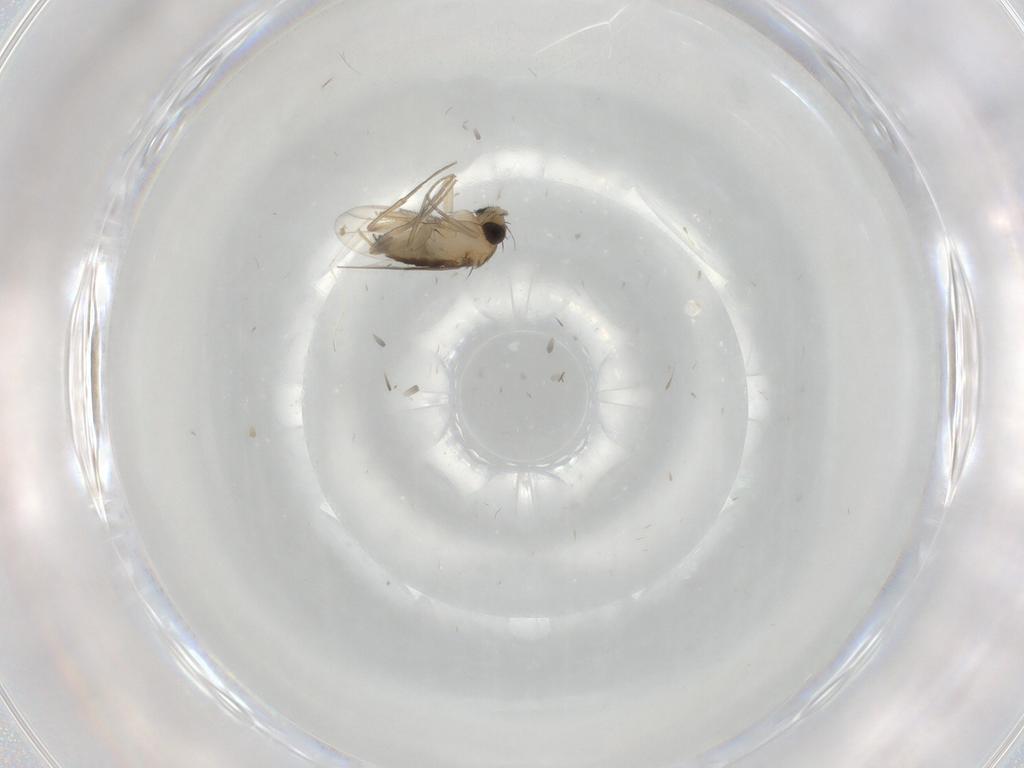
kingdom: Animalia
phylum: Arthropoda
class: Insecta
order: Diptera
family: Phoridae
